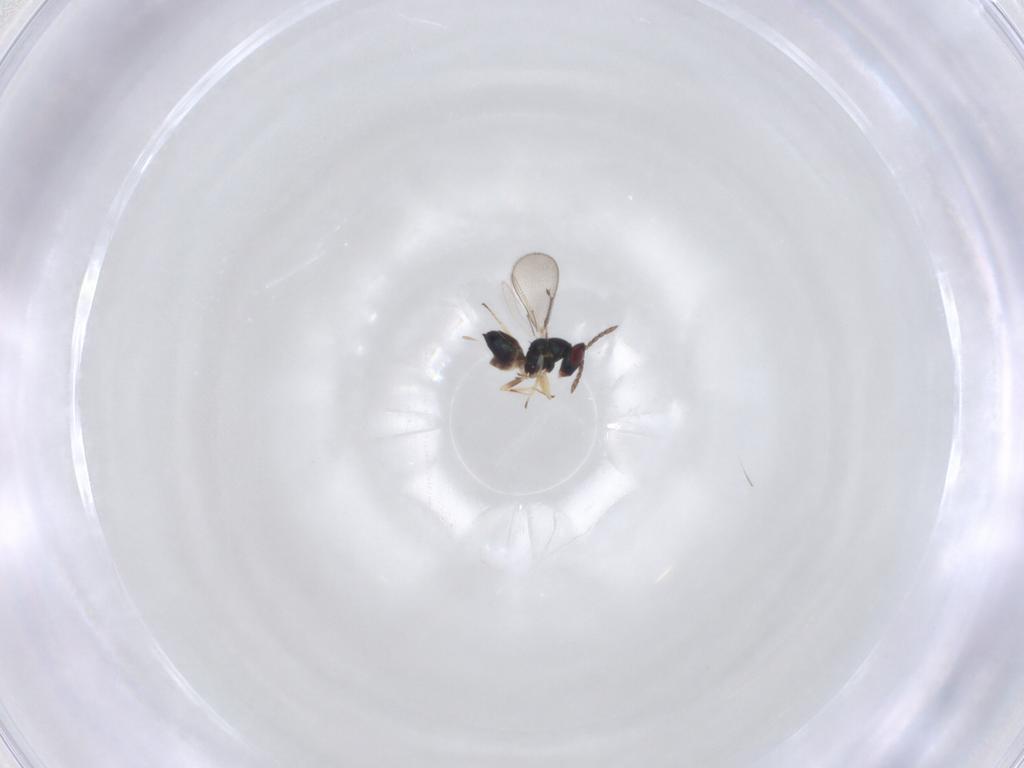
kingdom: Animalia
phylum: Arthropoda
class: Insecta
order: Hymenoptera
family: Eulophidae
